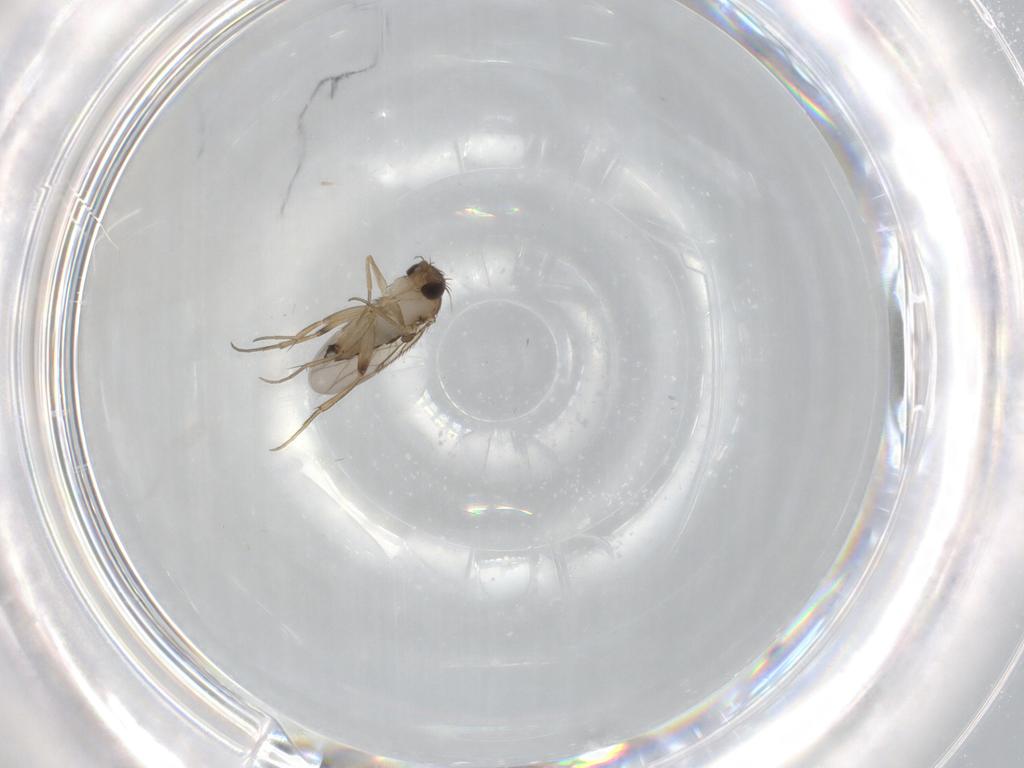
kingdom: Animalia
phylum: Arthropoda
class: Insecta
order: Diptera
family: Phoridae
